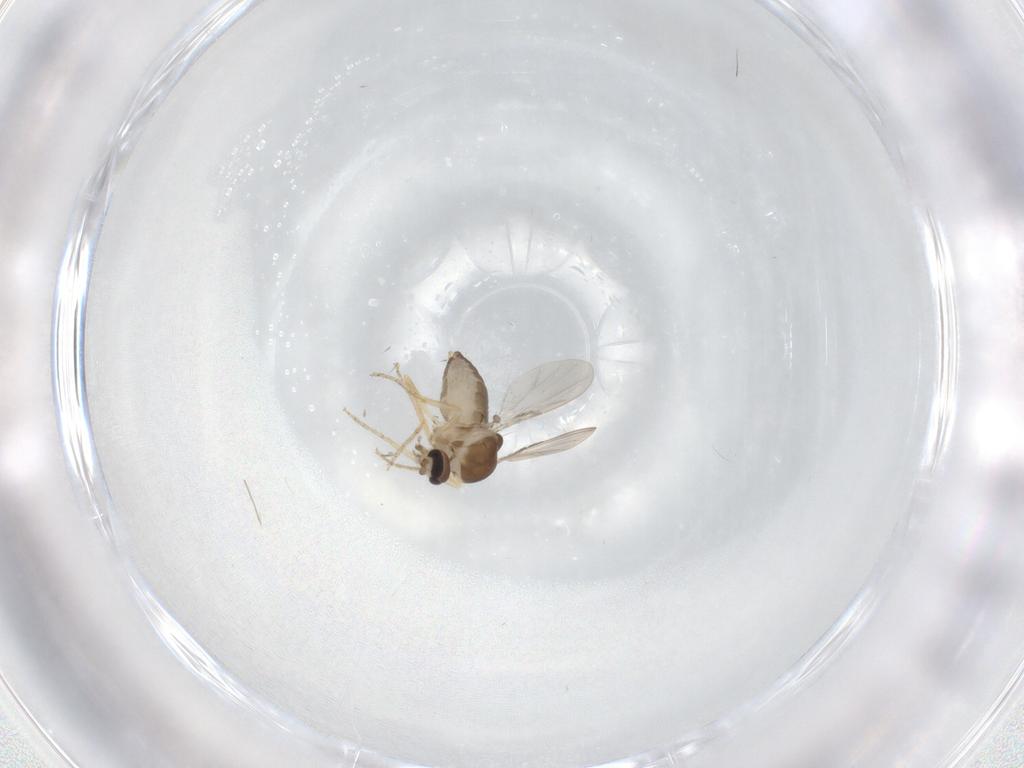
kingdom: Animalia
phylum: Arthropoda
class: Insecta
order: Diptera
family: Ceratopogonidae
